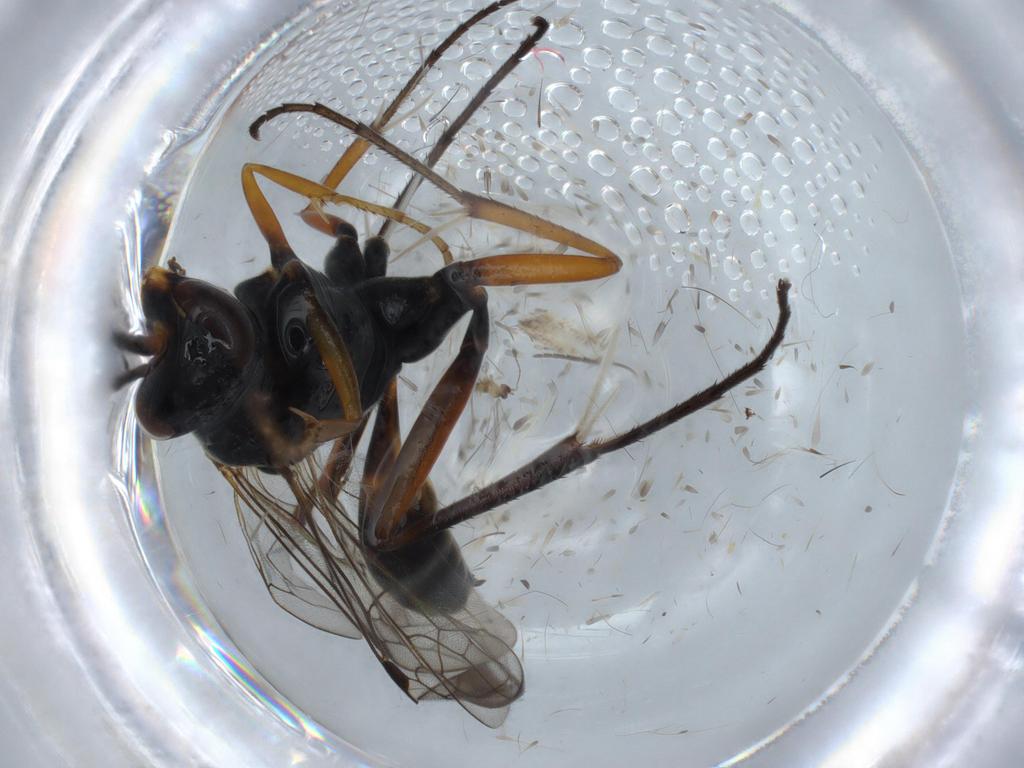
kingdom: Animalia
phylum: Arthropoda
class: Insecta
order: Hymenoptera
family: Pompilidae
